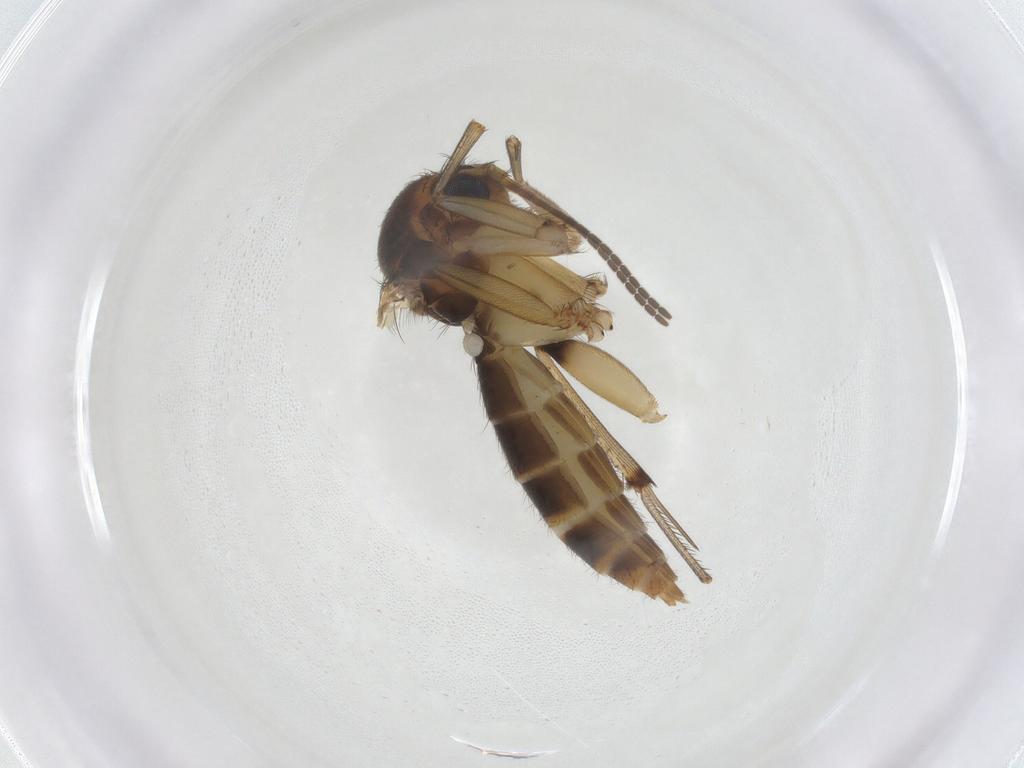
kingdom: Animalia
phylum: Arthropoda
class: Insecta
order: Diptera
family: Mycetophilidae
